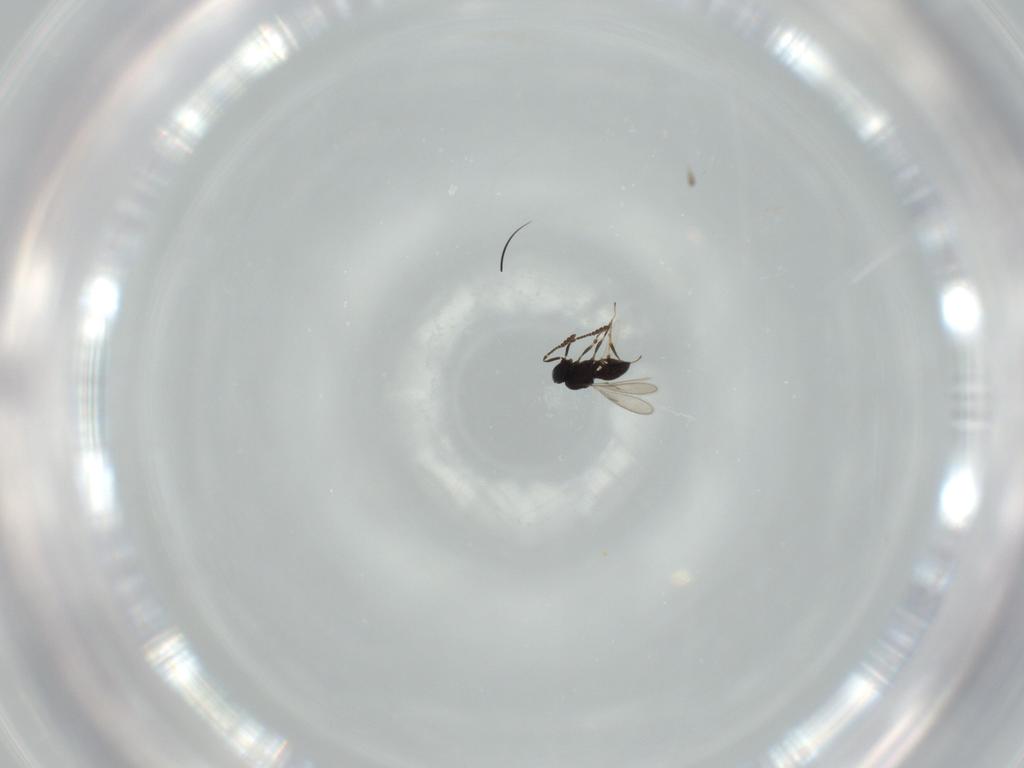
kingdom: Animalia
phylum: Arthropoda
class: Insecta
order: Hymenoptera
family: Scelionidae
